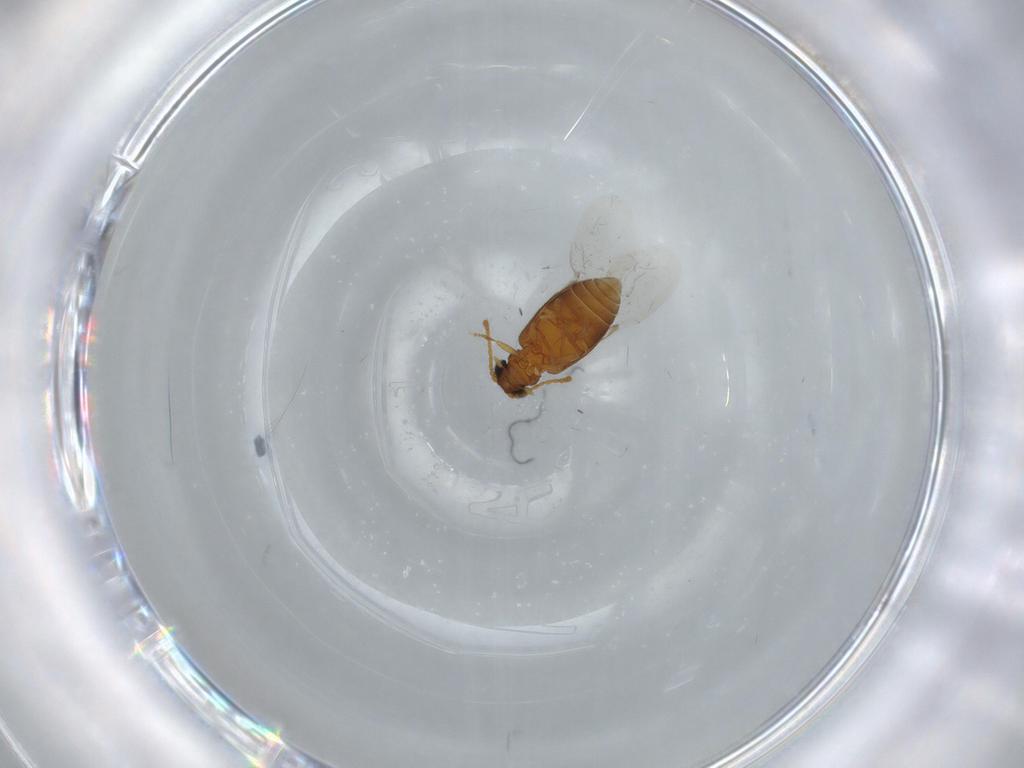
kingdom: Animalia
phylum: Arthropoda
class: Insecta
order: Coleoptera
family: Aderidae
